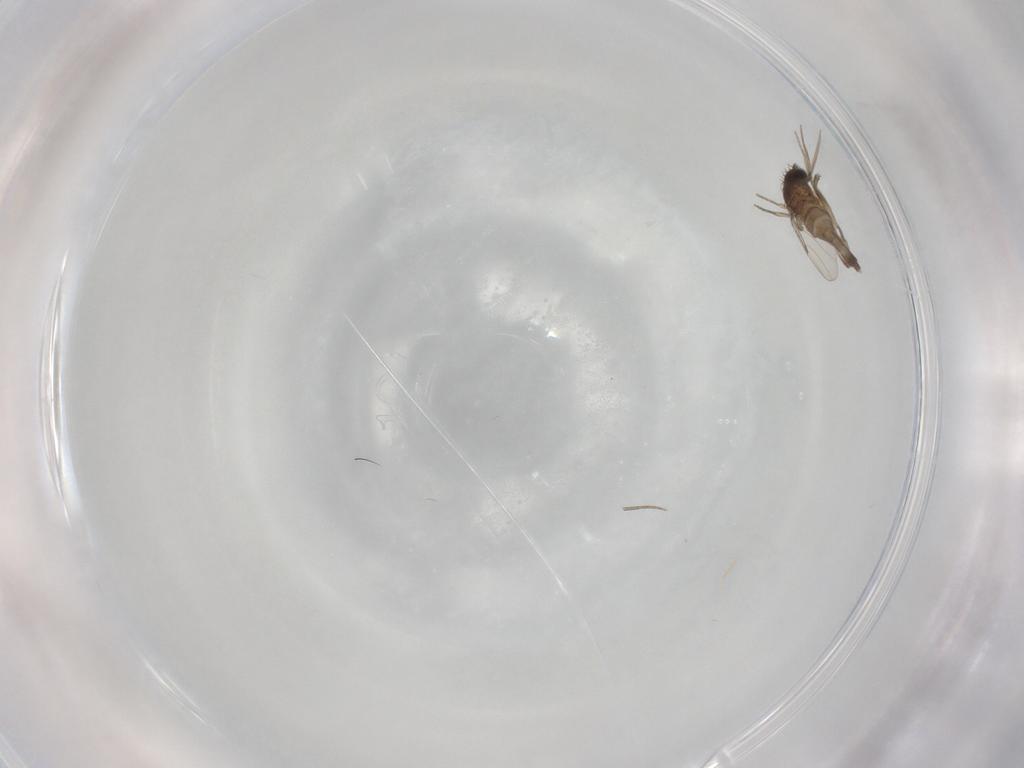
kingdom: Animalia
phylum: Arthropoda
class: Insecta
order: Diptera
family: Phoridae
